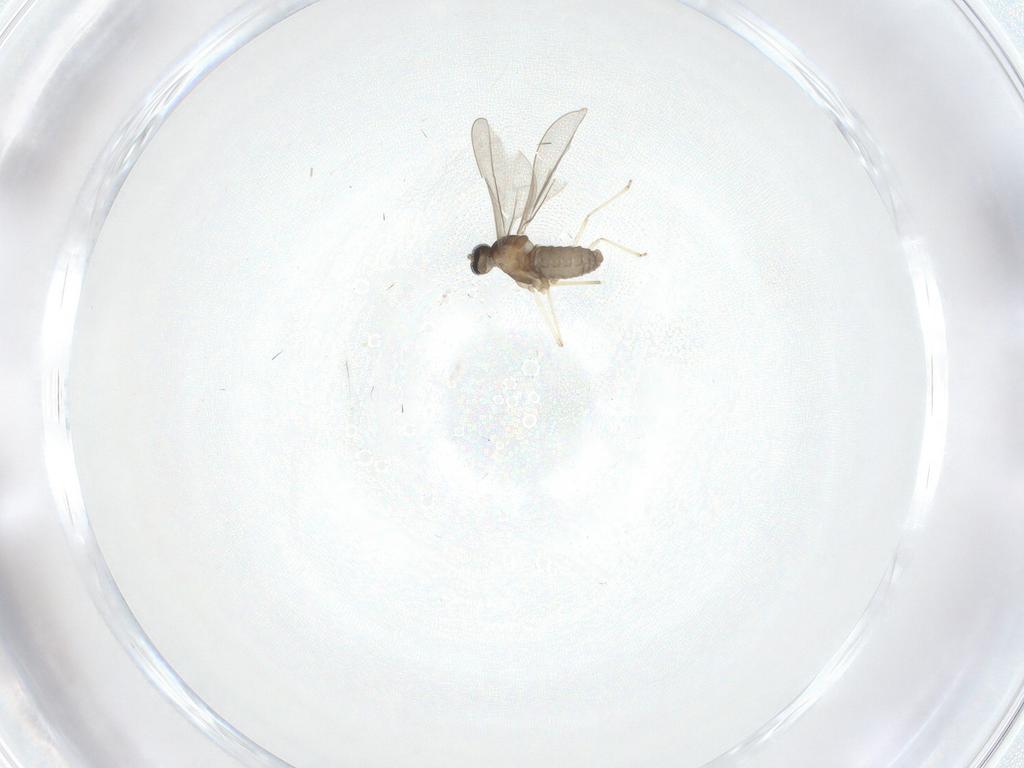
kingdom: Animalia
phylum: Arthropoda
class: Insecta
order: Diptera
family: Cecidomyiidae
